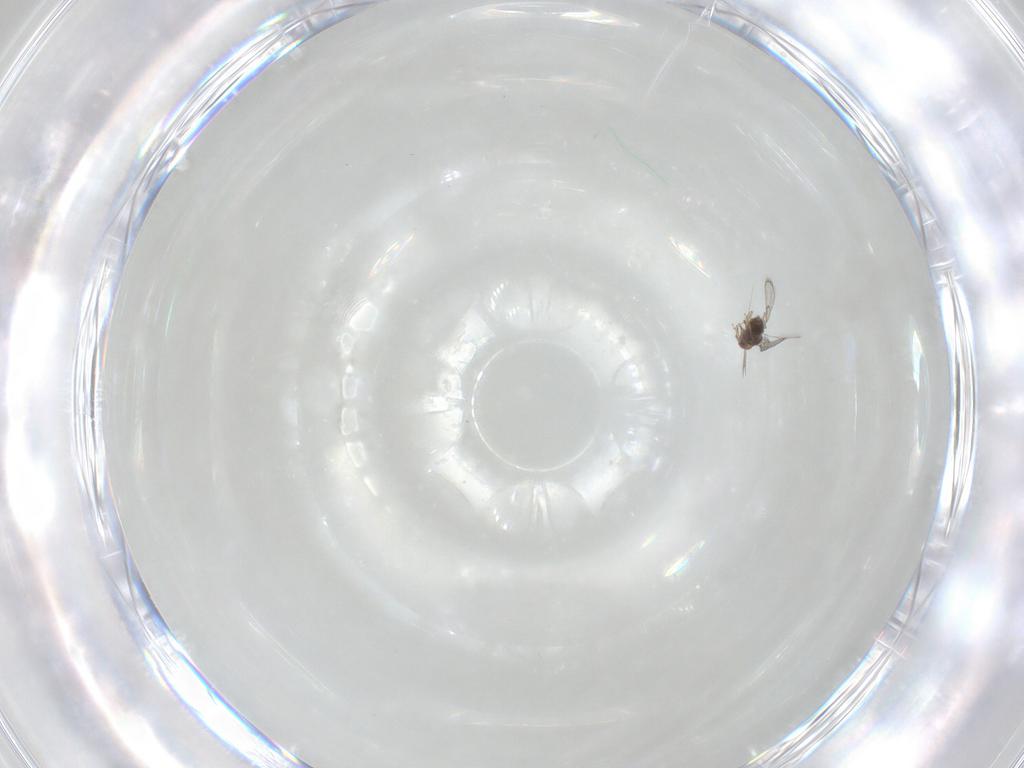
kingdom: Animalia
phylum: Arthropoda
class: Insecta
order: Hymenoptera
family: Trichogrammatidae
